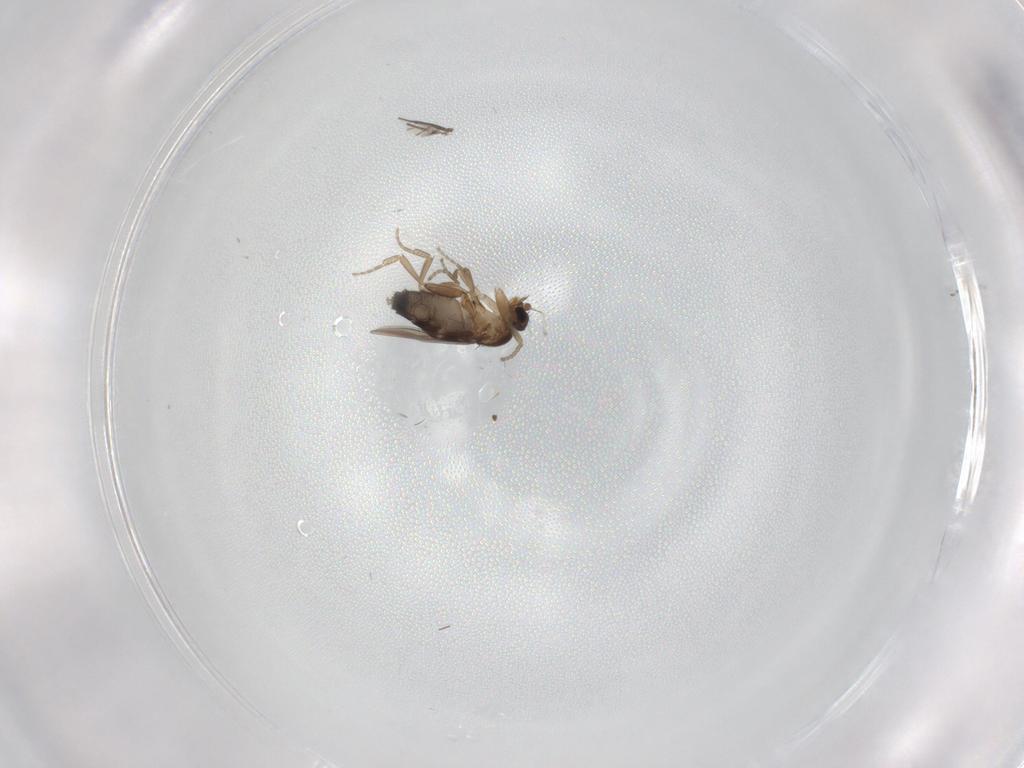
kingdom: Animalia
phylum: Arthropoda
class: Insecta
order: Diptera
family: Phoridae
